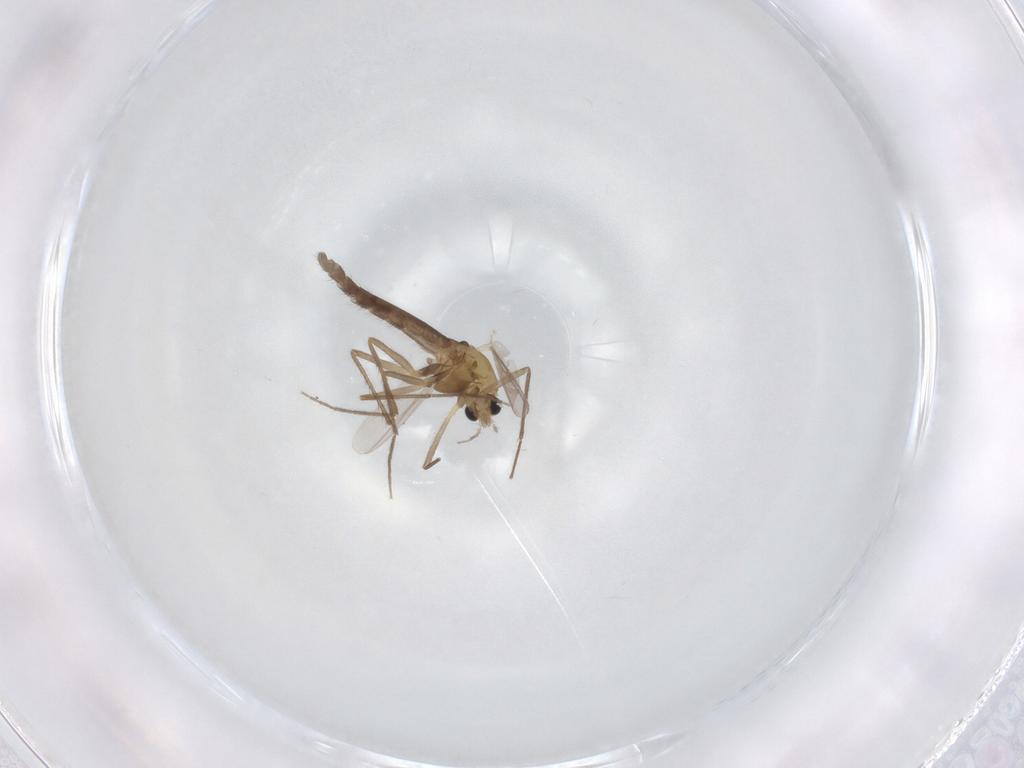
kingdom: Animalia
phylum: Arthropoda
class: Insecta
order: Diptera
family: Chironomidae
